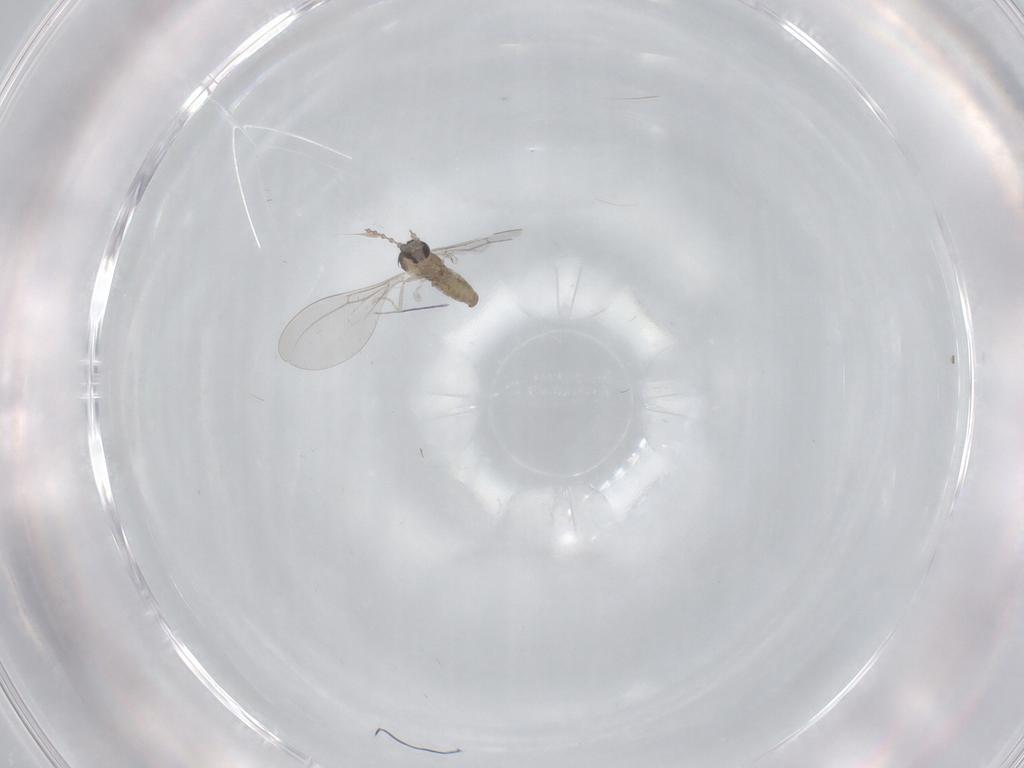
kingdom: Animalia
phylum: Arthropoda
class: Insecta
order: Diptera
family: Cecidomyiidae
